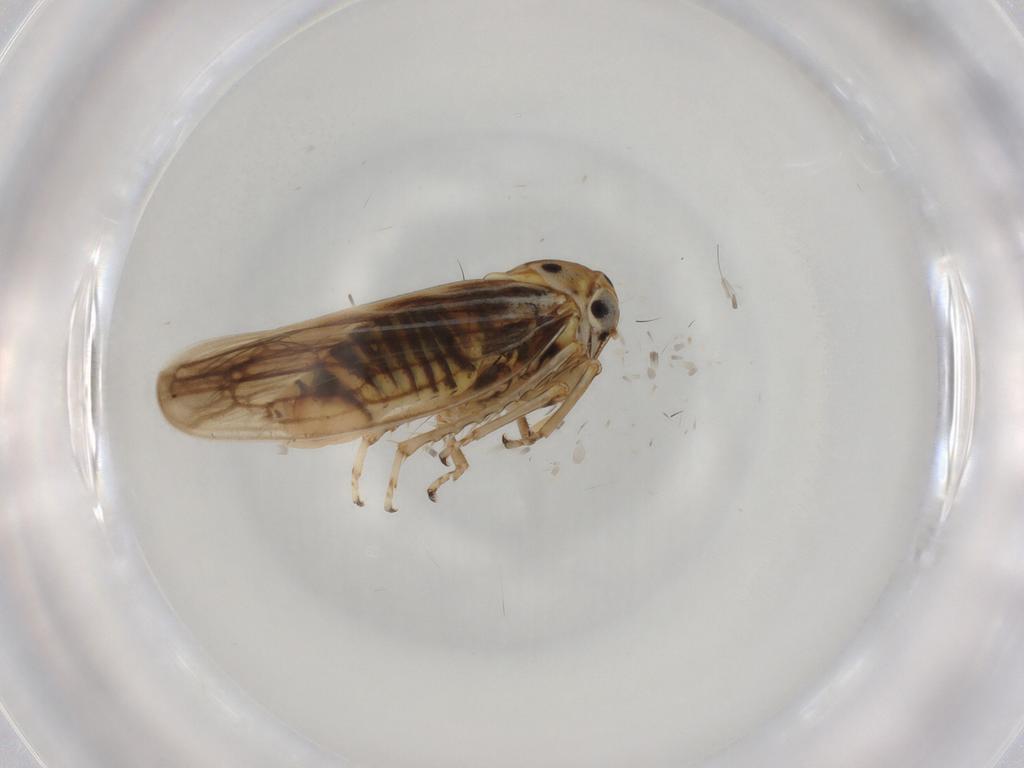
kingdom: Animalia
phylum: Arthropoda
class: Insecta
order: Hemiptera
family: Cicadellidae
